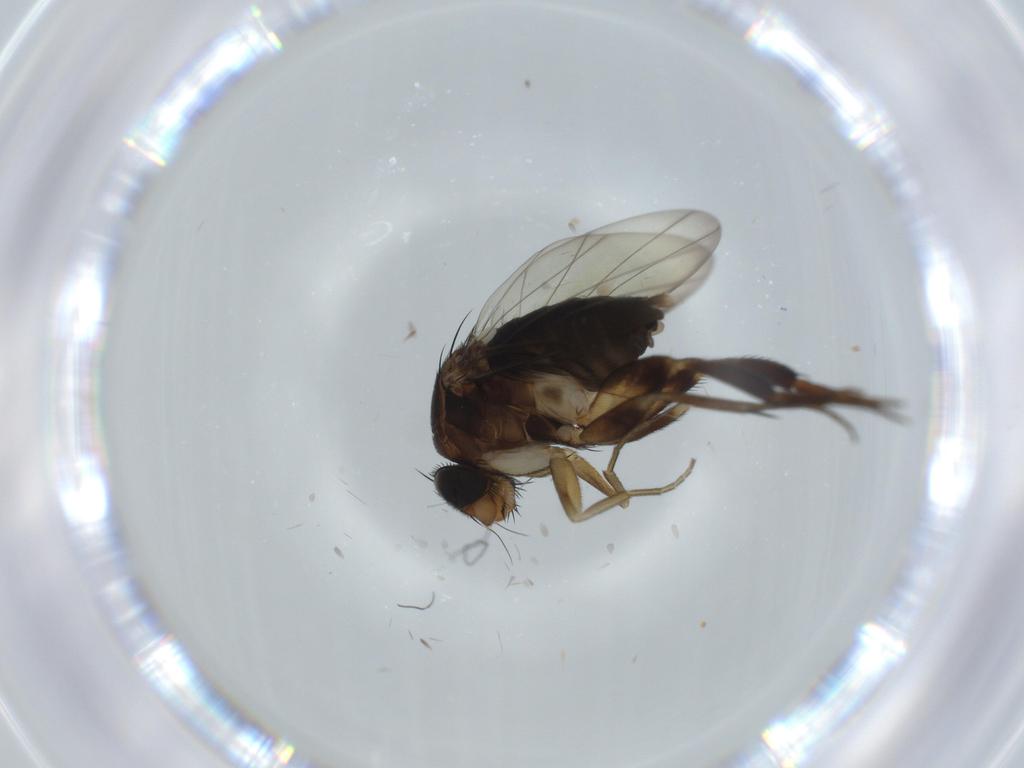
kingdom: Animalia
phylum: Arthropoda
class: Insecta
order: Diptera
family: Phoridae
